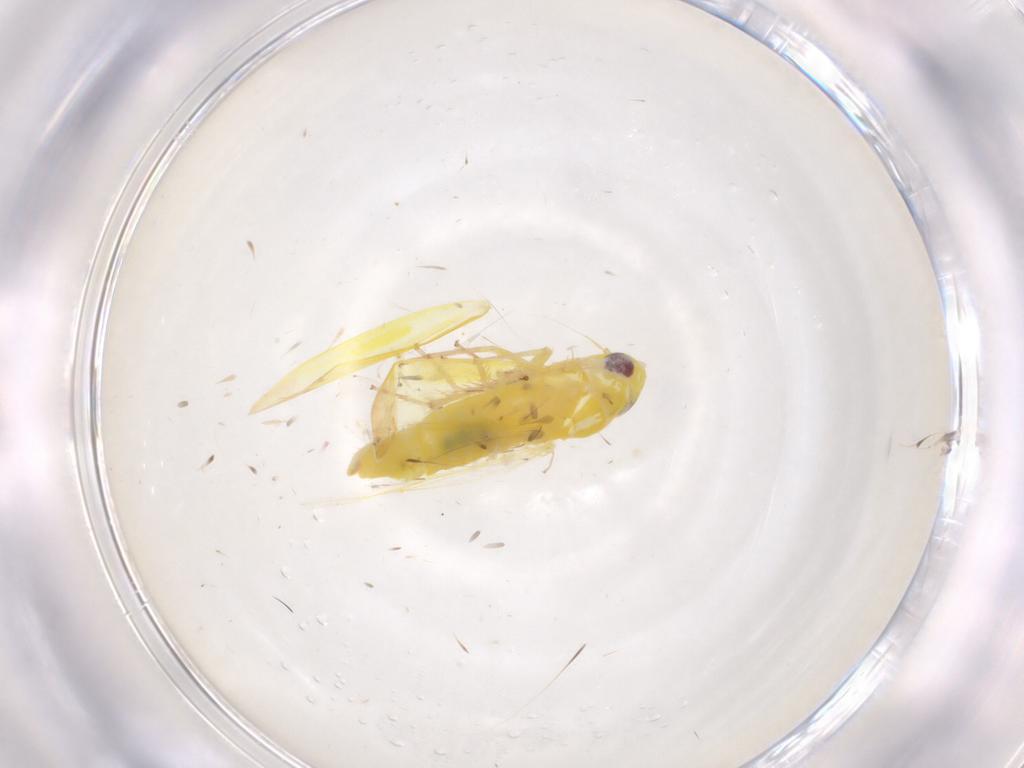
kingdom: Animalia
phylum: Arthropoda
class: Insecta
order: Hemiptera
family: Cicadellidae
